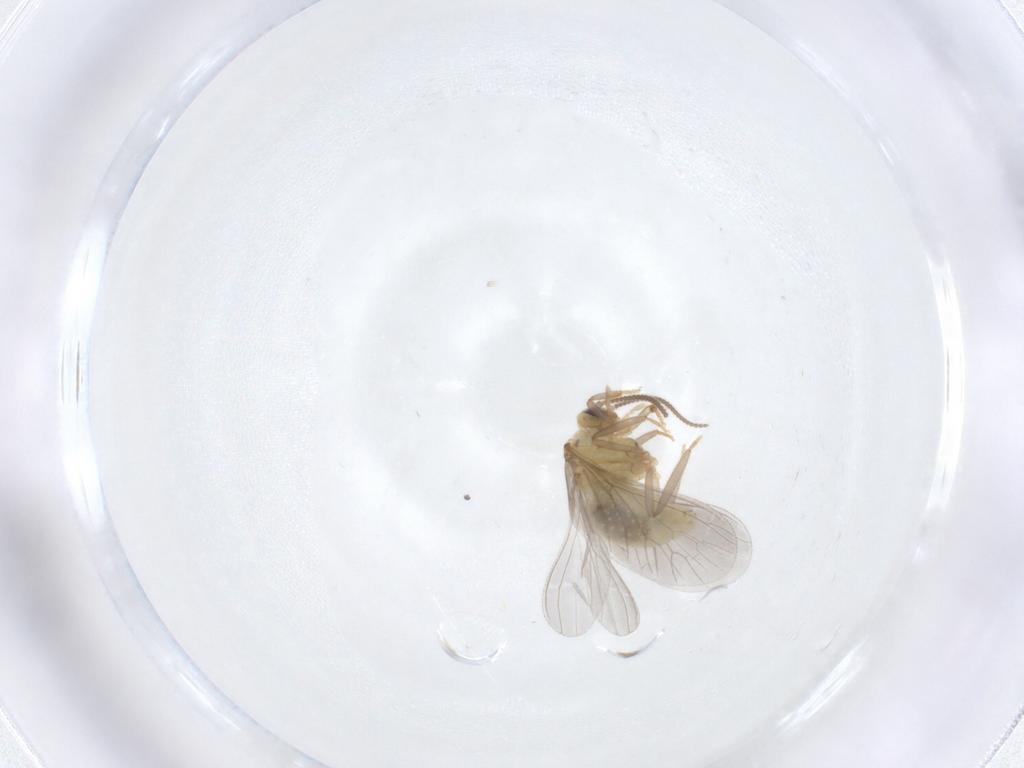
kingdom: Animalia
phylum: Arthropoda
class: Insecta
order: Neuroptera
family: Coniopterygidae
